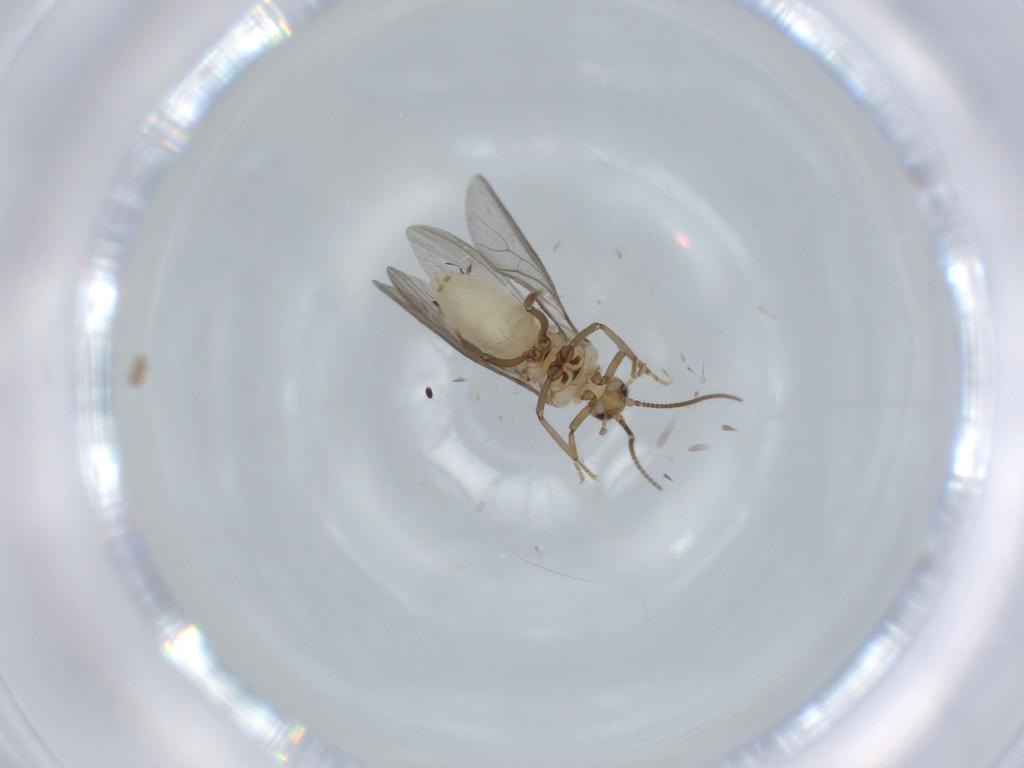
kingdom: Animalia
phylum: Arthropoda
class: Insecta
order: Neuroptera
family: Coniopterygidae
